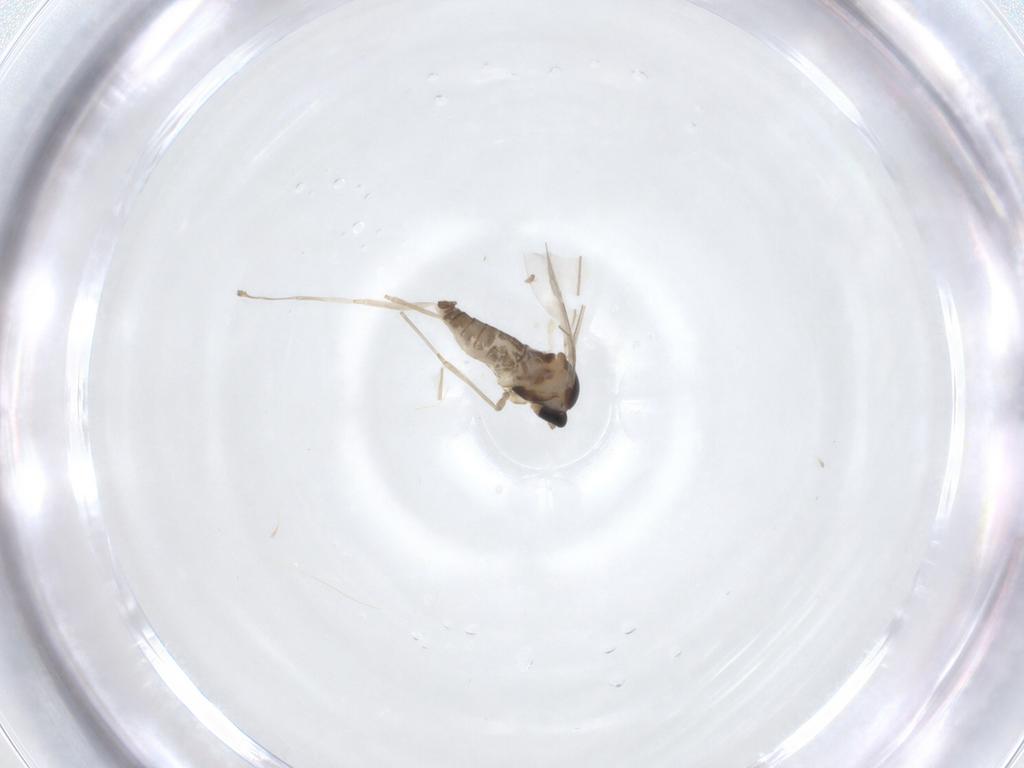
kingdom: Animalia
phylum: Arthropoda
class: Insecta
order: Diptera
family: Cecidomyiidae
